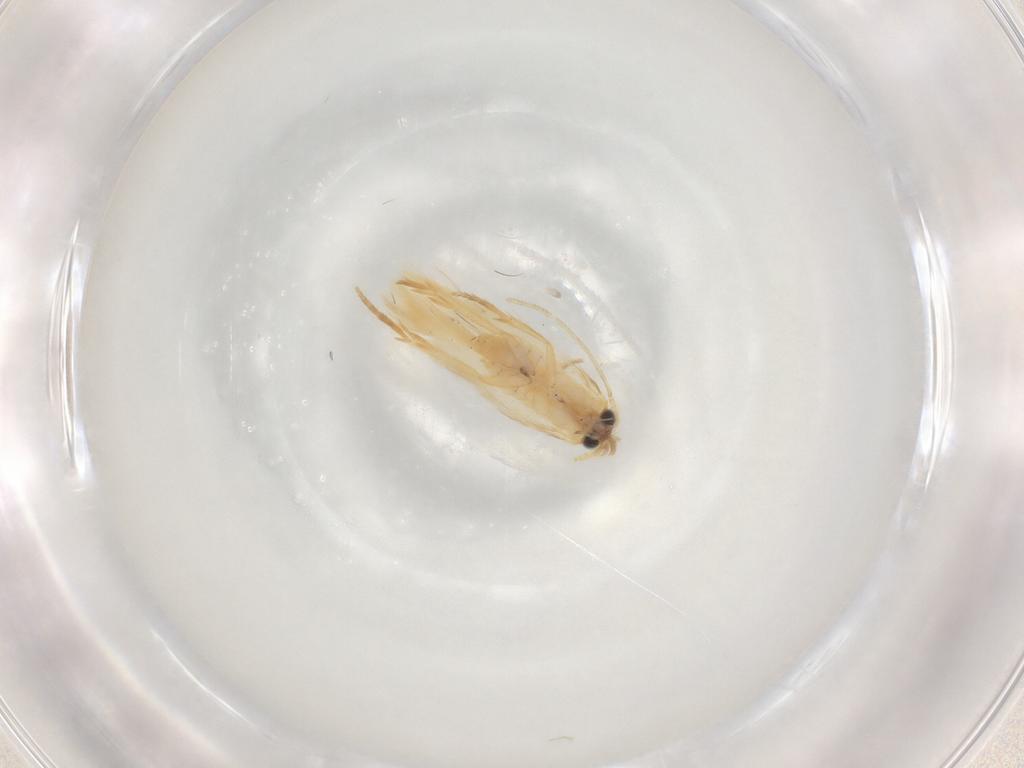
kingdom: Animalia
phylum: Arthropoda
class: Insecta
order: Lepidoptera
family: Nepticulidae
